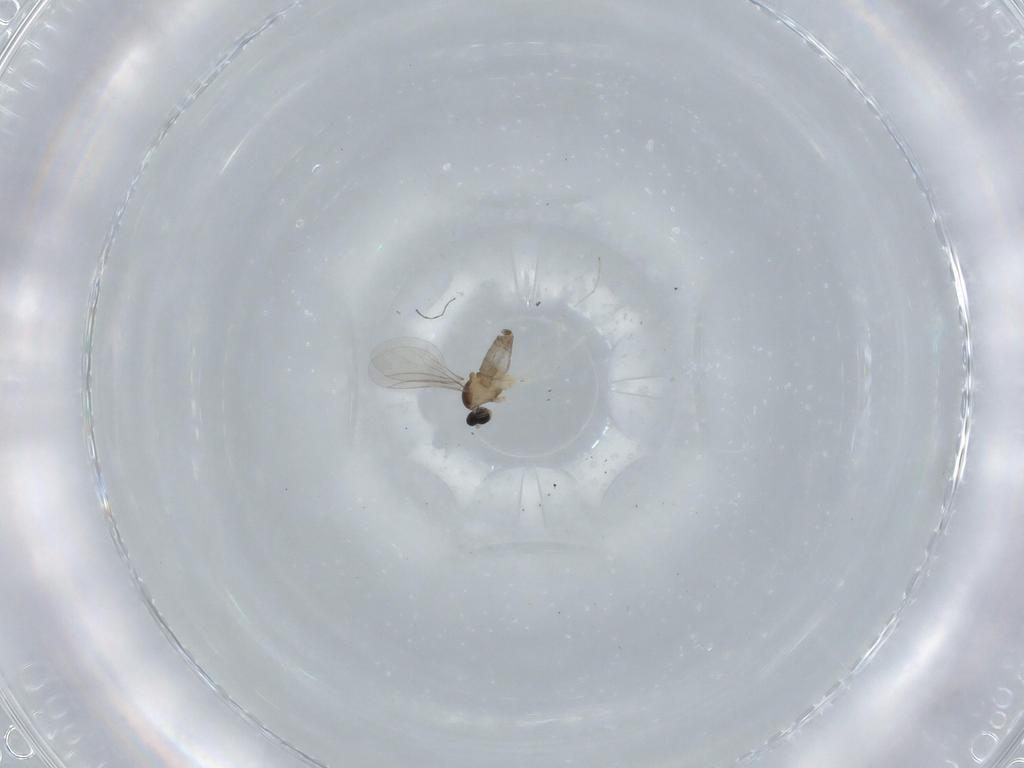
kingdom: Animalia
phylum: Arthropoda
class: Insecta
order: Diptera
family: Cecidomyiidae
